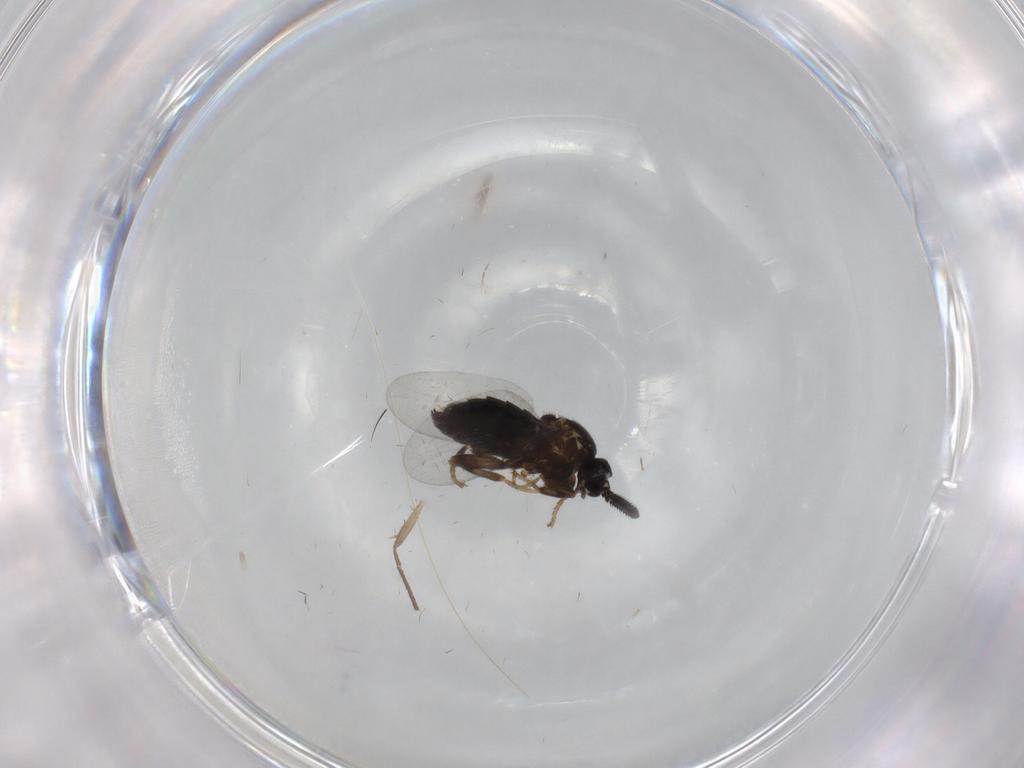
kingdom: Animalia
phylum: Arthropoda
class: Insecta
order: Diptera
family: Scatopsidae
